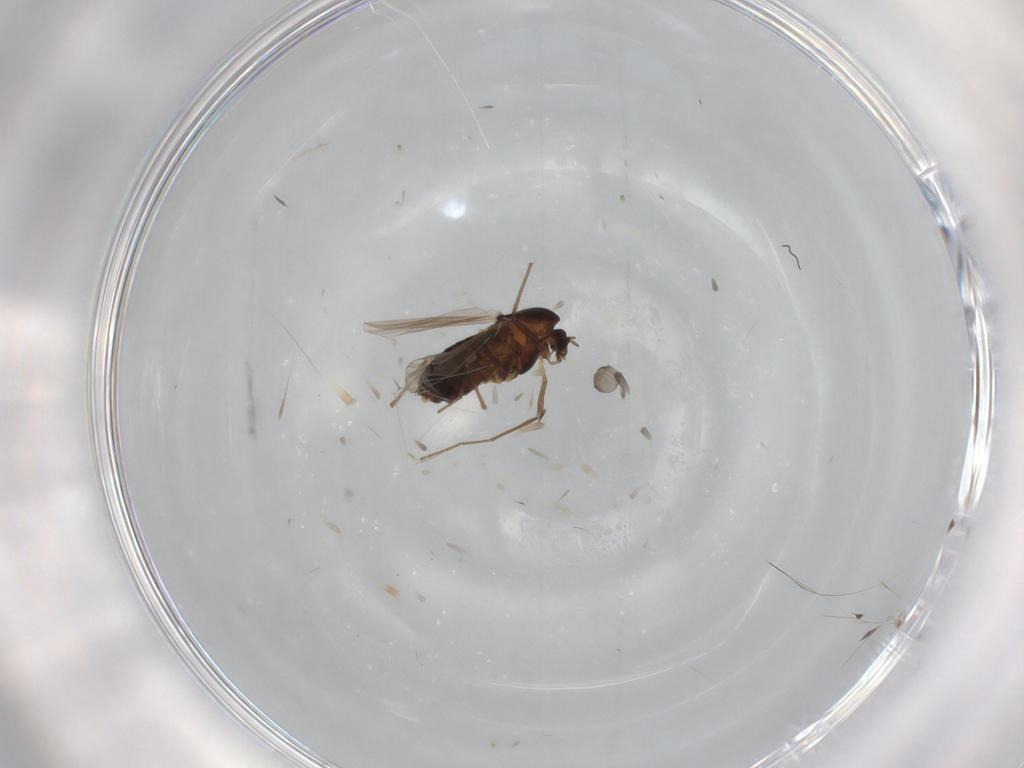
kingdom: Animalia
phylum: Arthropoda
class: Insecta
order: Diptera
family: Chironomidae
